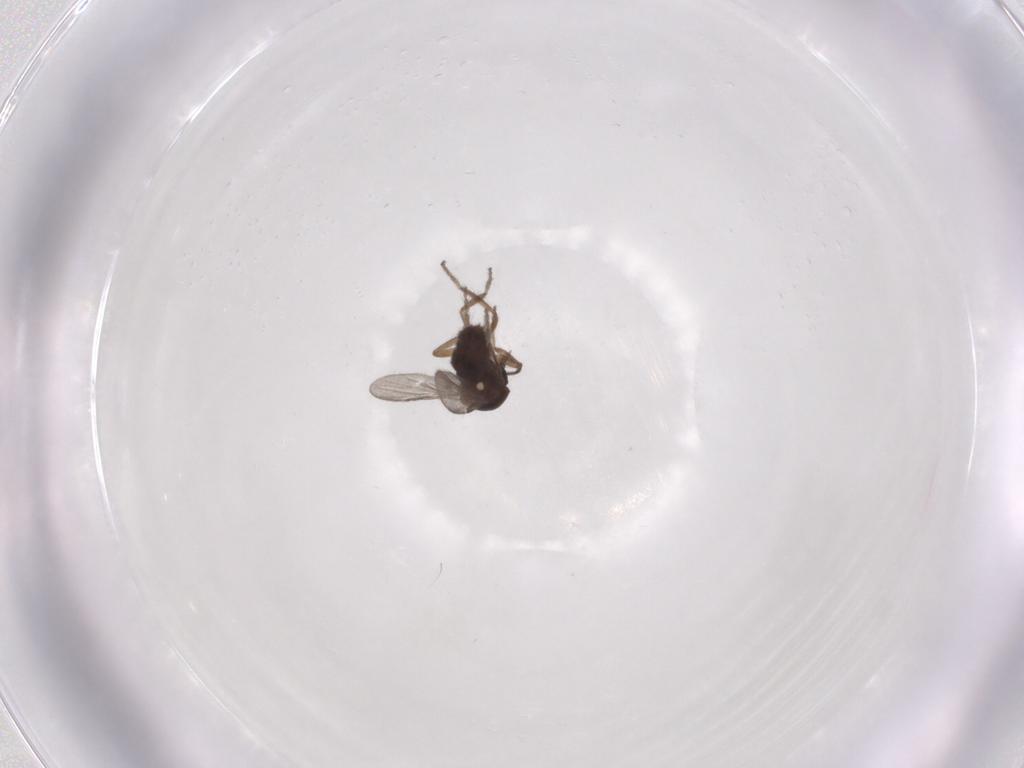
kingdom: Animalia
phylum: Arthropoda
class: Insecta
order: Diptera
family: Ceratopogonidae
